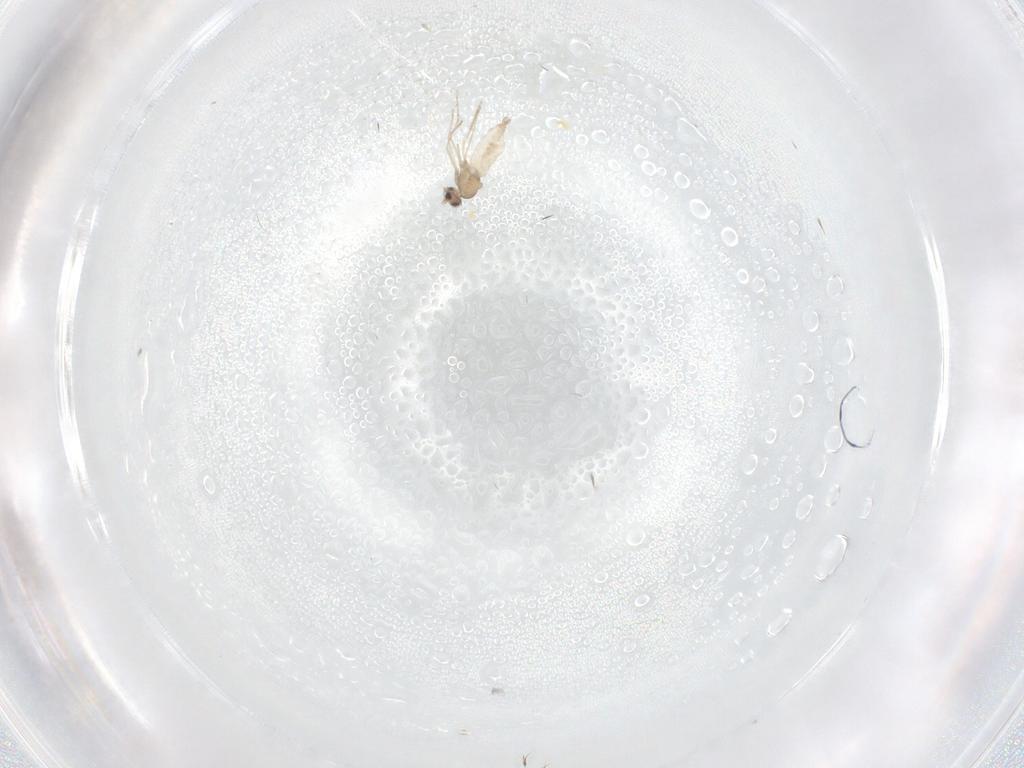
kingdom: Animalia
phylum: Arthropoda
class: Insecta
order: Diptera
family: Cecidomyiidae
